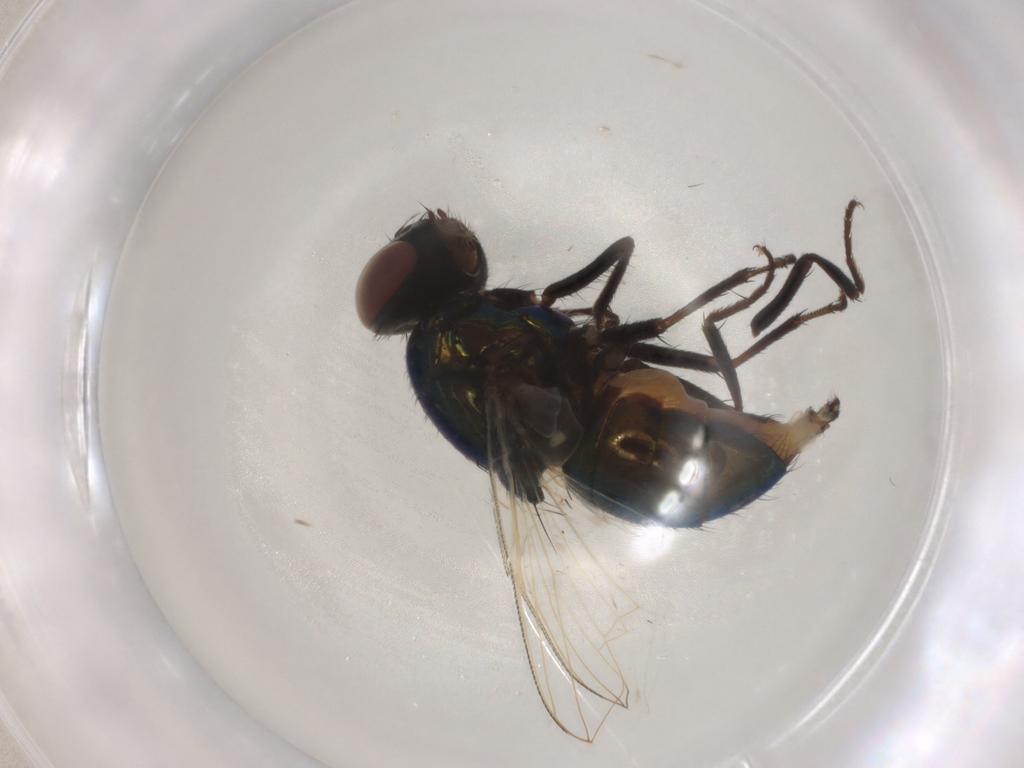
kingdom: Animalia
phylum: Arthropoda
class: Insecta
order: Diptera
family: Muscidae
